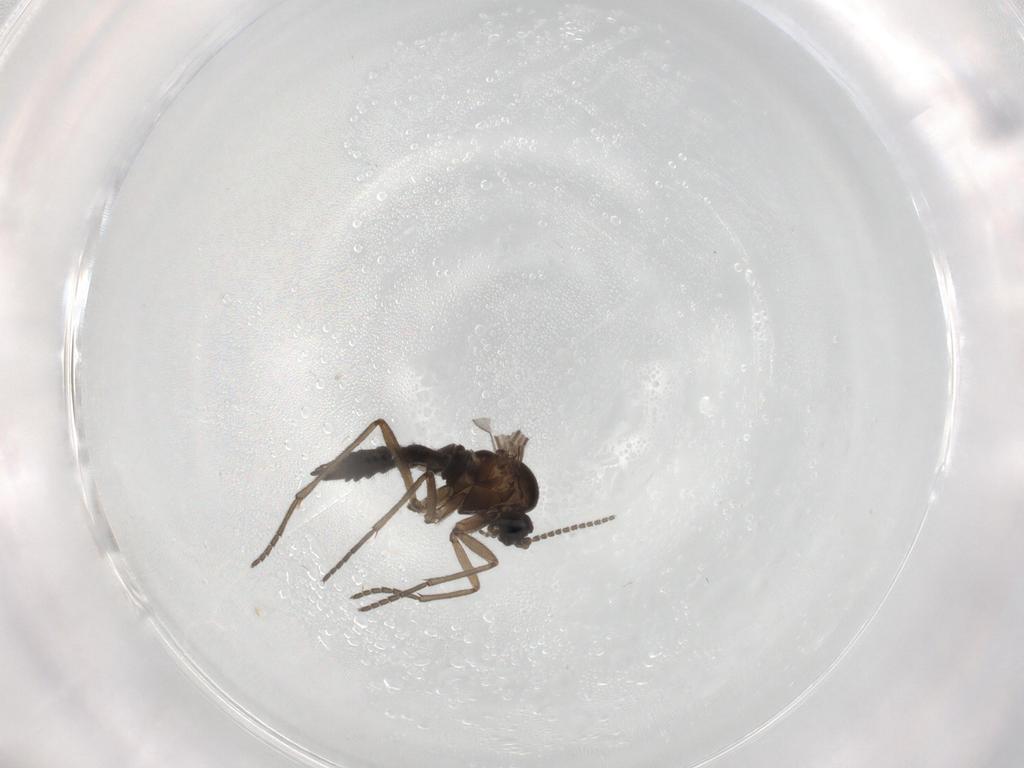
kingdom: Animalia
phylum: Arthropoda
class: Insecta
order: Diptera
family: Sciaridae
